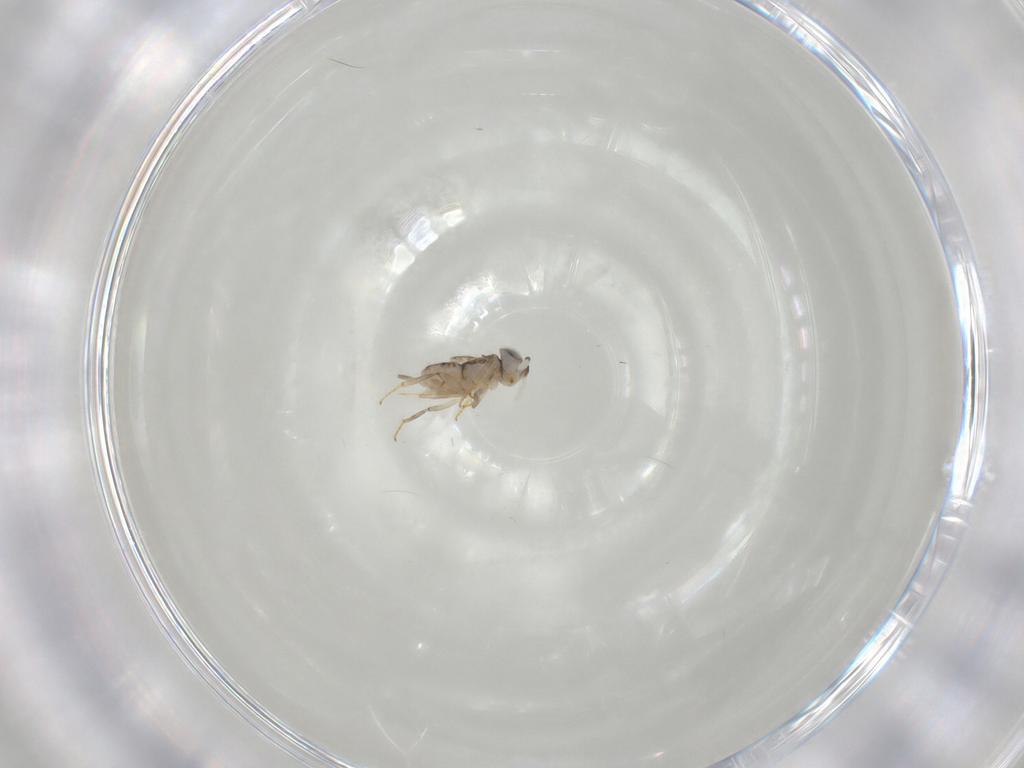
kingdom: Animalia
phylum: Arthropoda
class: Insecta
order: Hymenoptera
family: Encyrtidae
